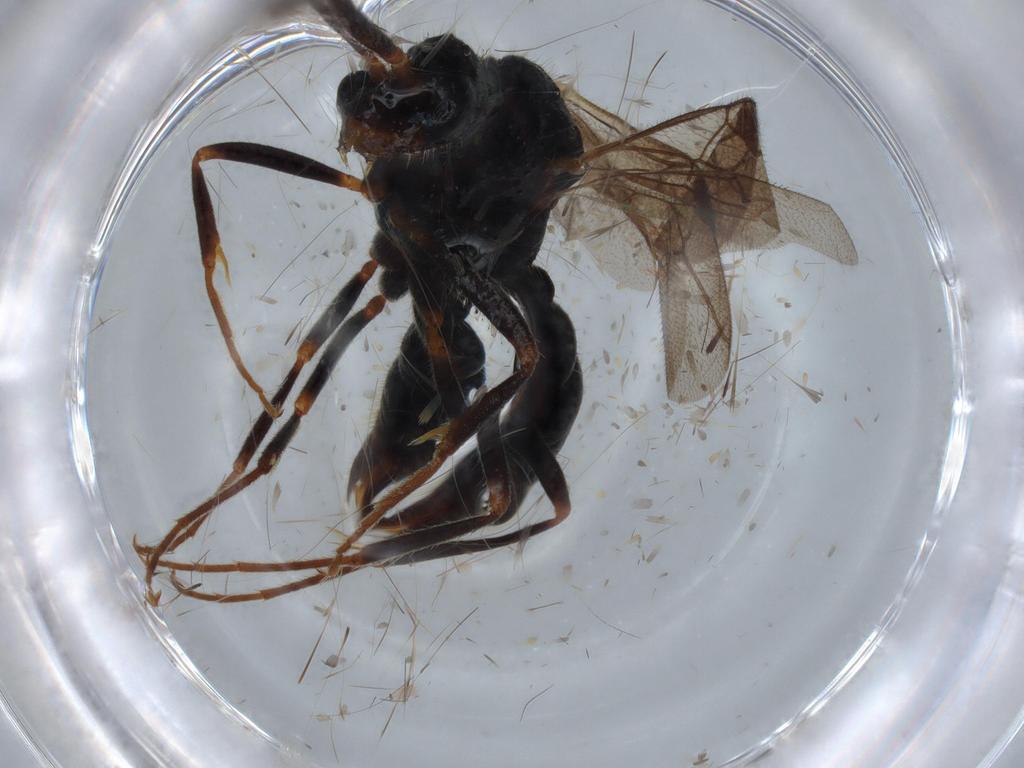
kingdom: Animalia
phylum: Arthropoda
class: Insecta
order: Hymenoptera
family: Formicidae
